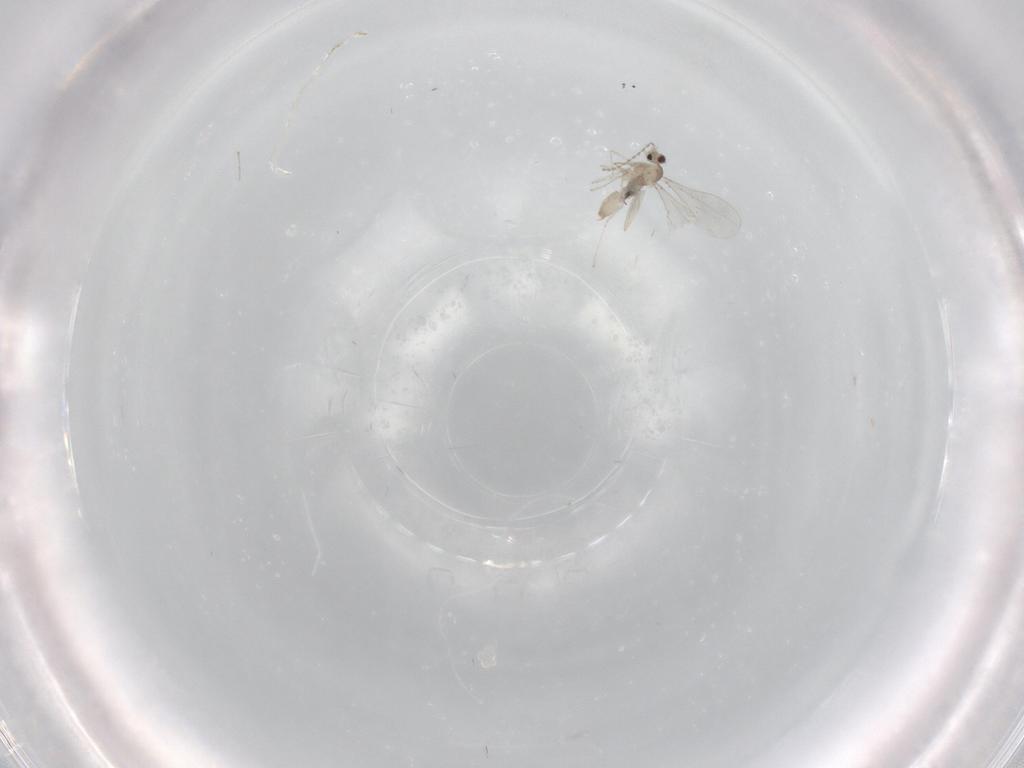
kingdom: Animalia
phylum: Arthropoda
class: Insecta
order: Diptera
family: Cecidomyiidae
